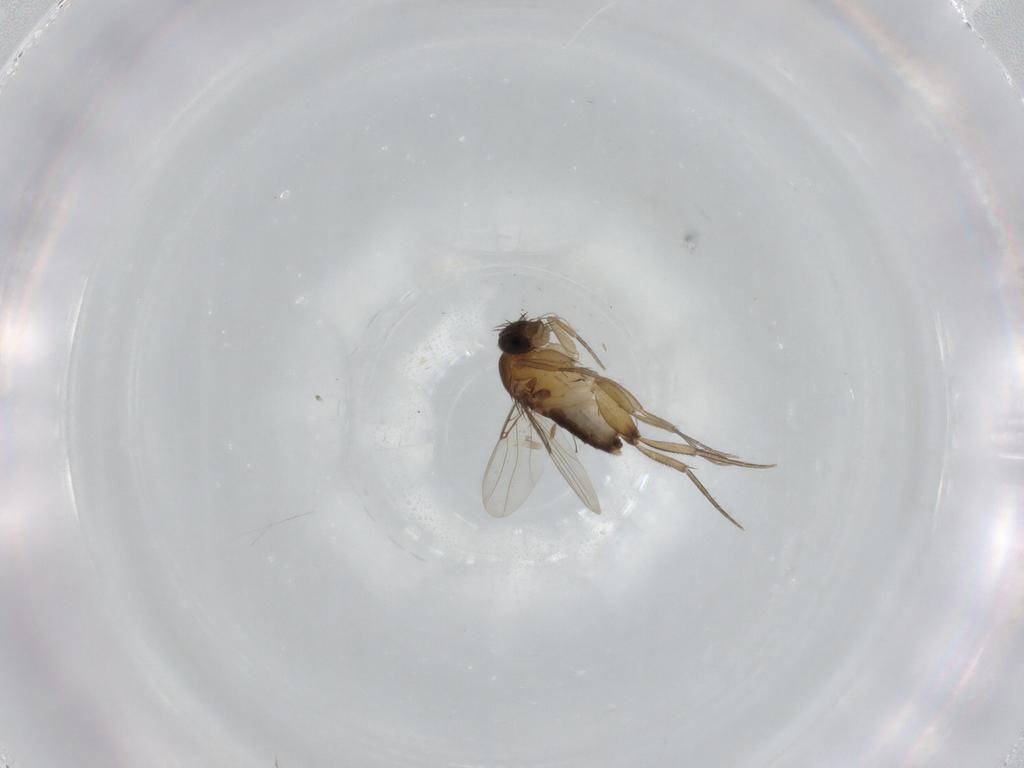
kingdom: Animalia
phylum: Arthropoda
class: Insecta
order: Diptera
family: Phoridae
